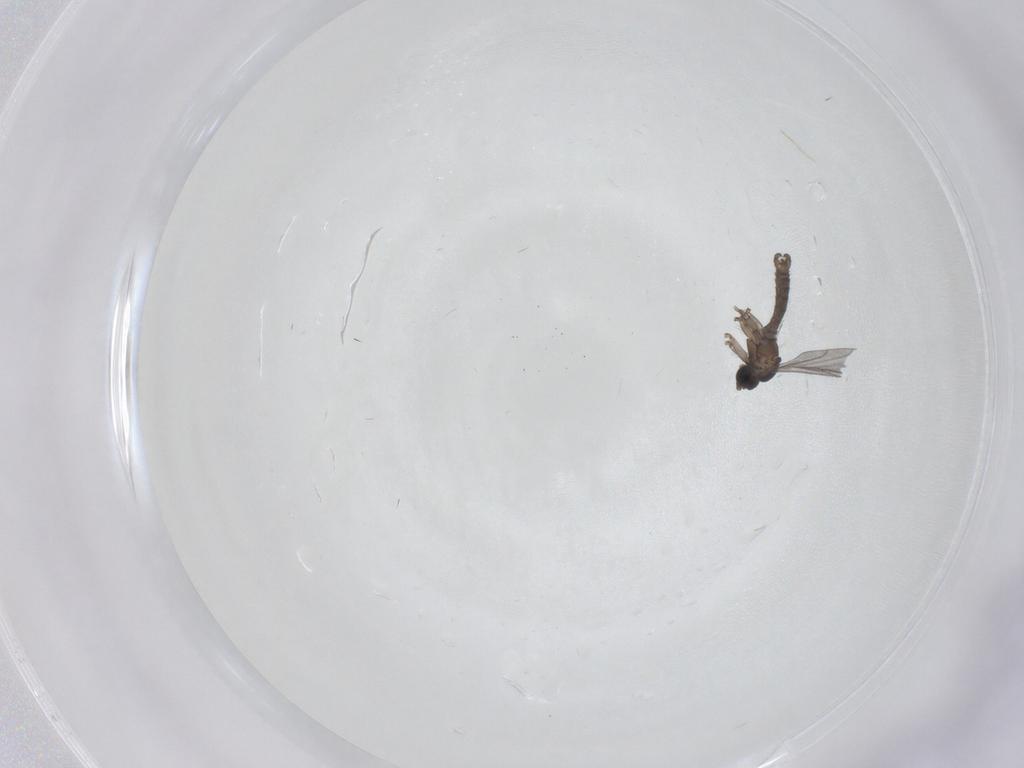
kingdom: Animalia
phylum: Arthropoda
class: Insecta
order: Diptera
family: Sciaridae
